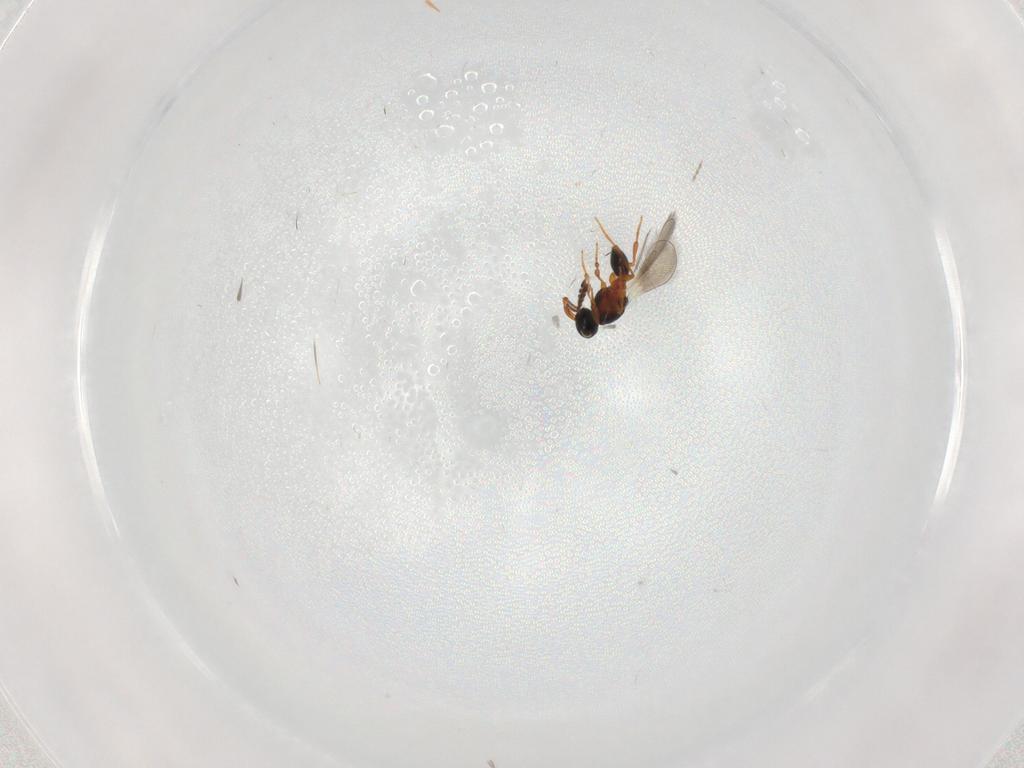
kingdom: Animalia
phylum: Arthropoda
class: Insecta
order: Hymenoptera
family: Platygastridae
